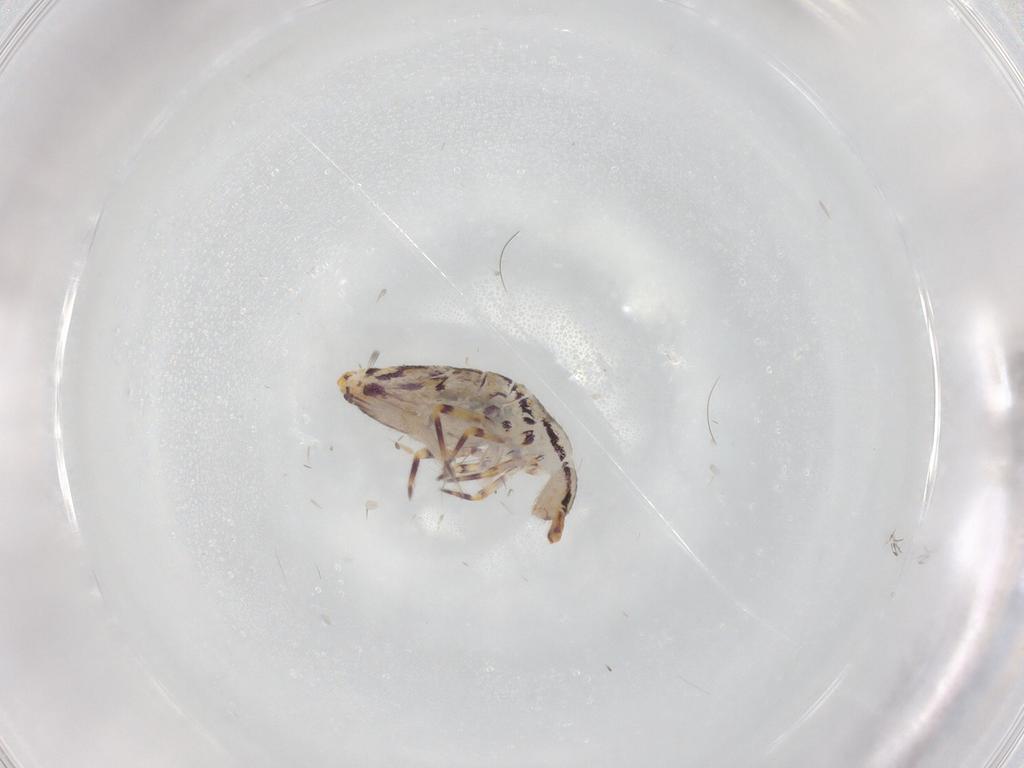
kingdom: Animalia
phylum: Arthropoda
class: Collembola
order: Entomobryomorpha
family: Entomobryidae
